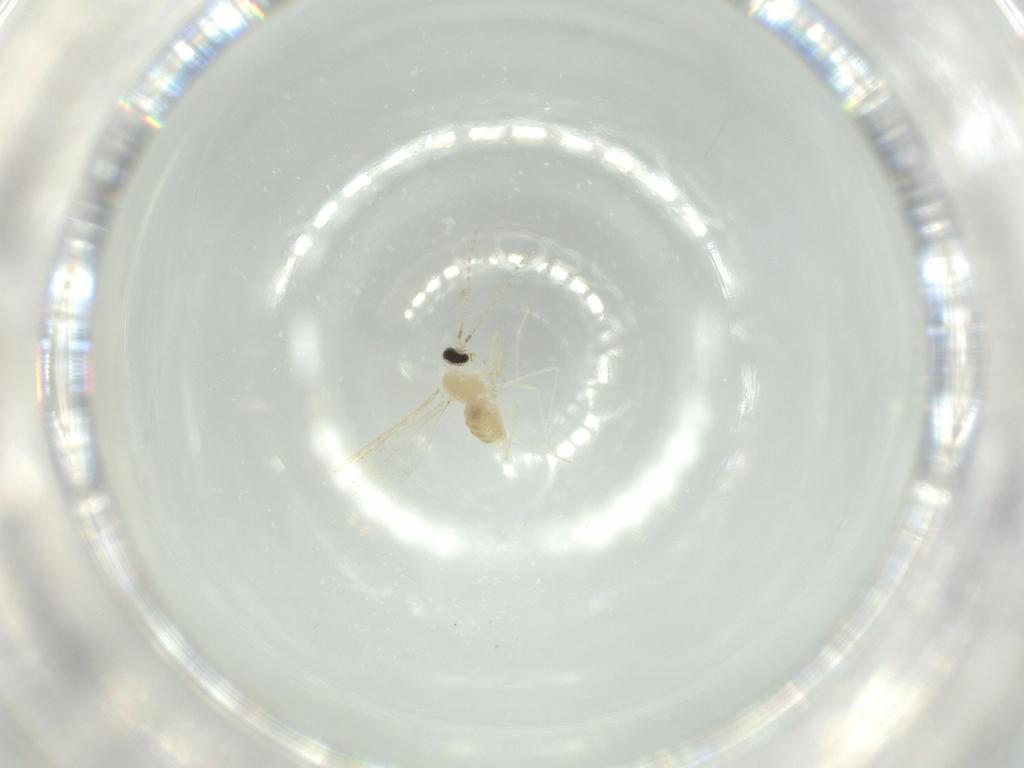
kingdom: Animalia
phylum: Arthropoda
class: Insecta
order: Diptera
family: Cecidomyiidae
